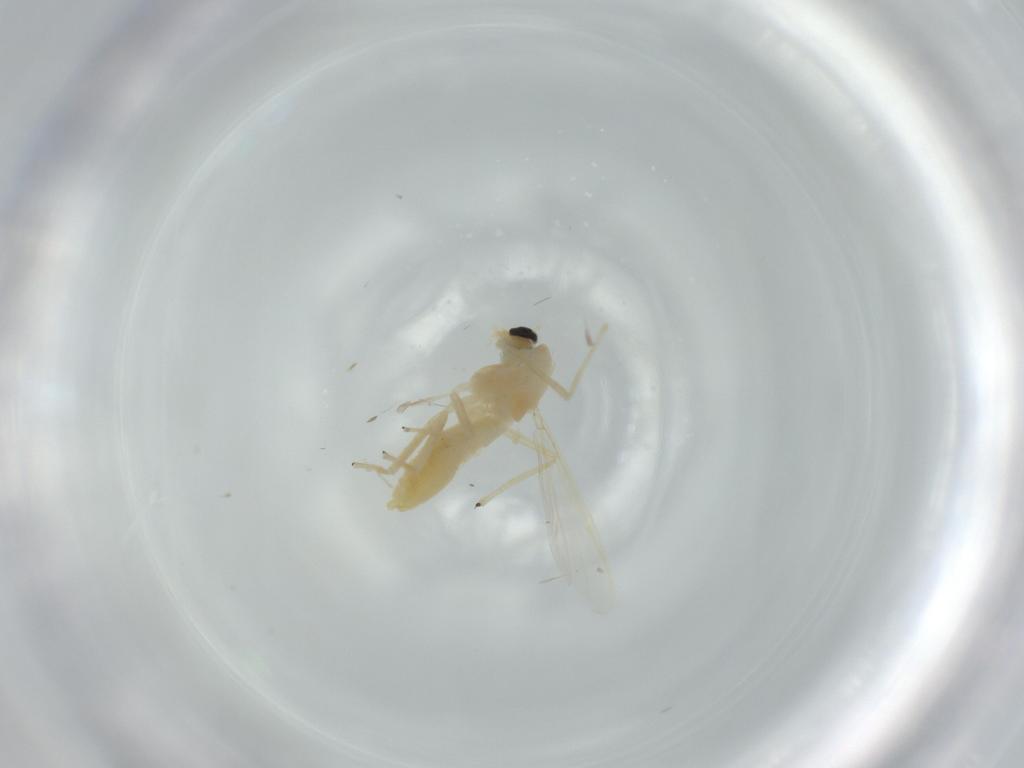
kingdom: Animalia
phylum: Arthropoda
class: Insecta
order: Diptera
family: Chironomidae
